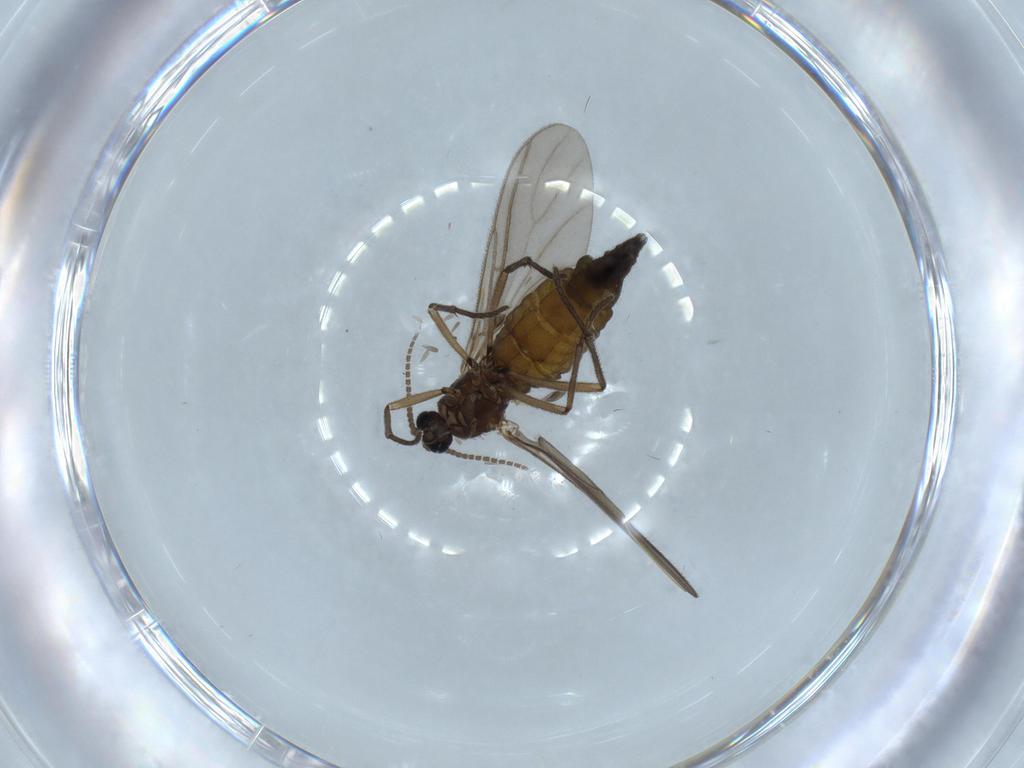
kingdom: Animalia
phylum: Arthropoda
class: Insecta
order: Diptera
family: Sciaridae
